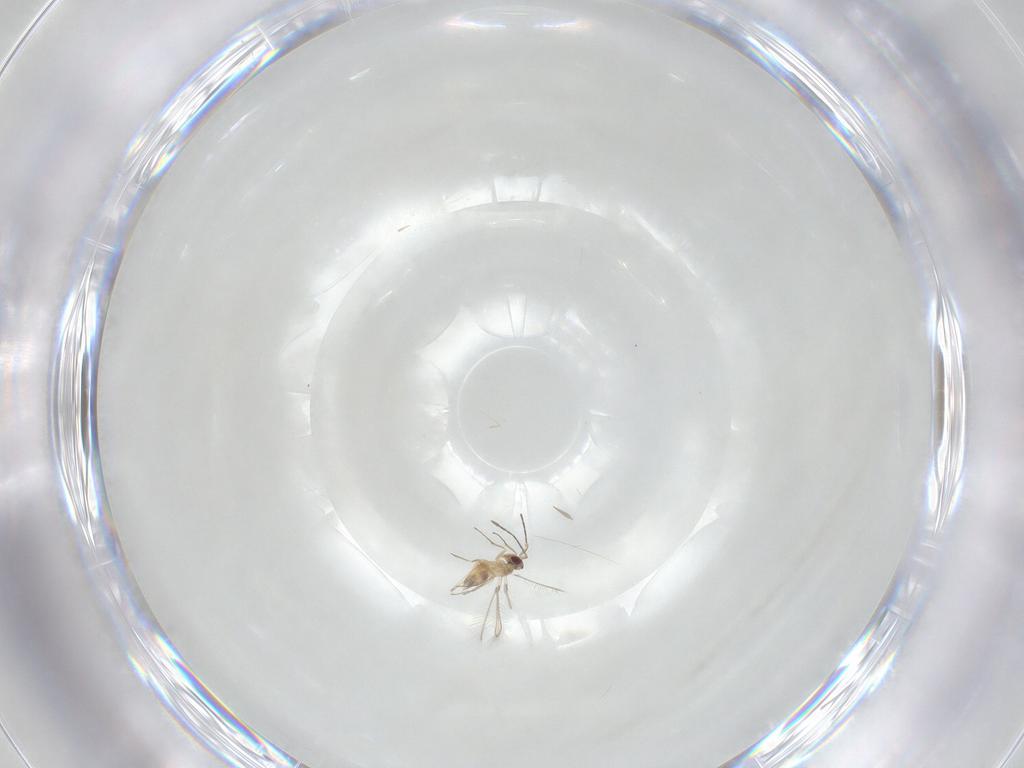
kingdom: Animalia
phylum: Arthropoda
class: Insecta
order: Hymenoptera
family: Mymaridae
